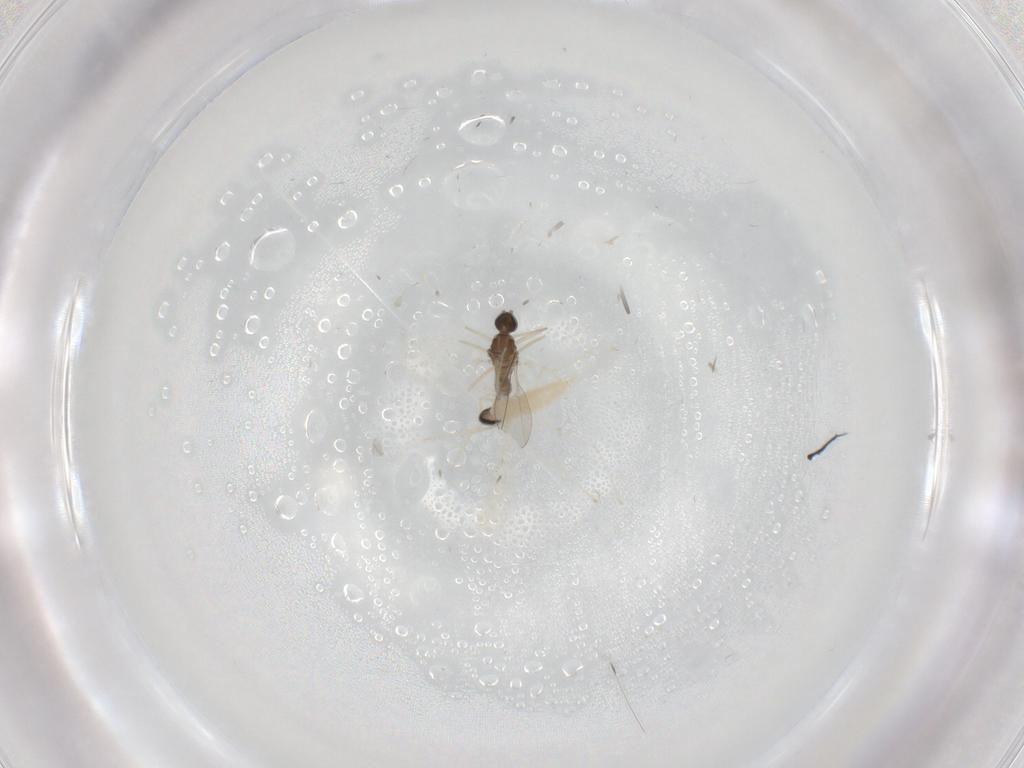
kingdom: Animalia
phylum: Arthropoda
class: Insecta
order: Diptera
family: Cecidomyiidae
